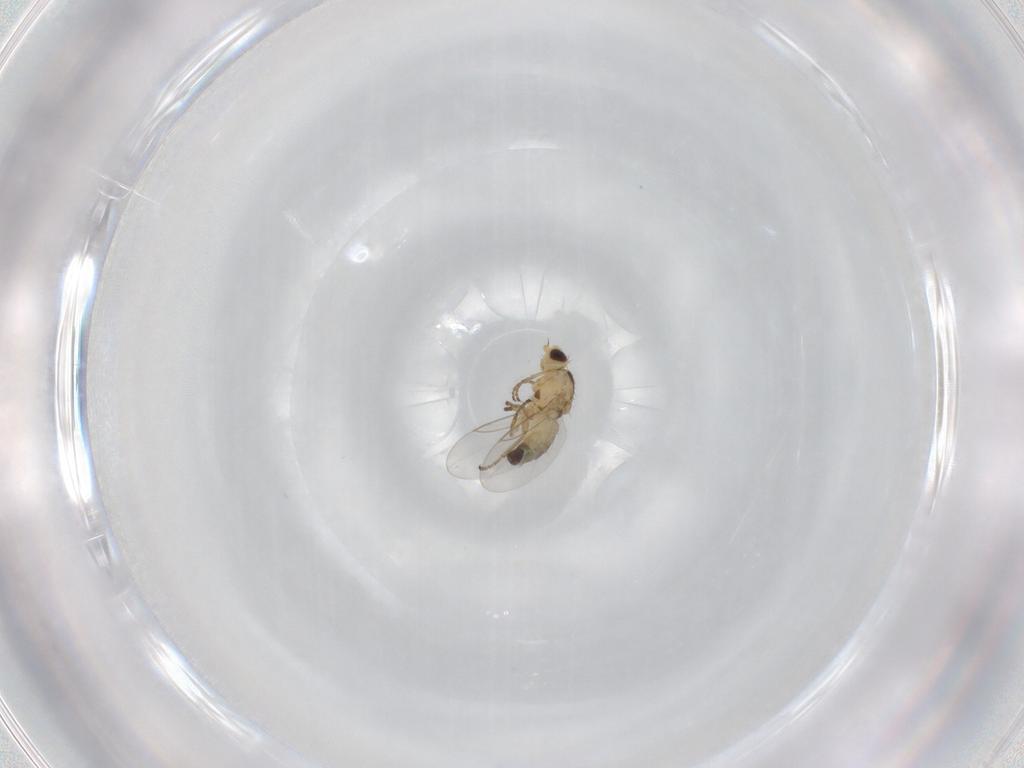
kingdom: Animalia
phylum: Arthropoda
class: Insecta
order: Diptera
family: Agromyzidae
